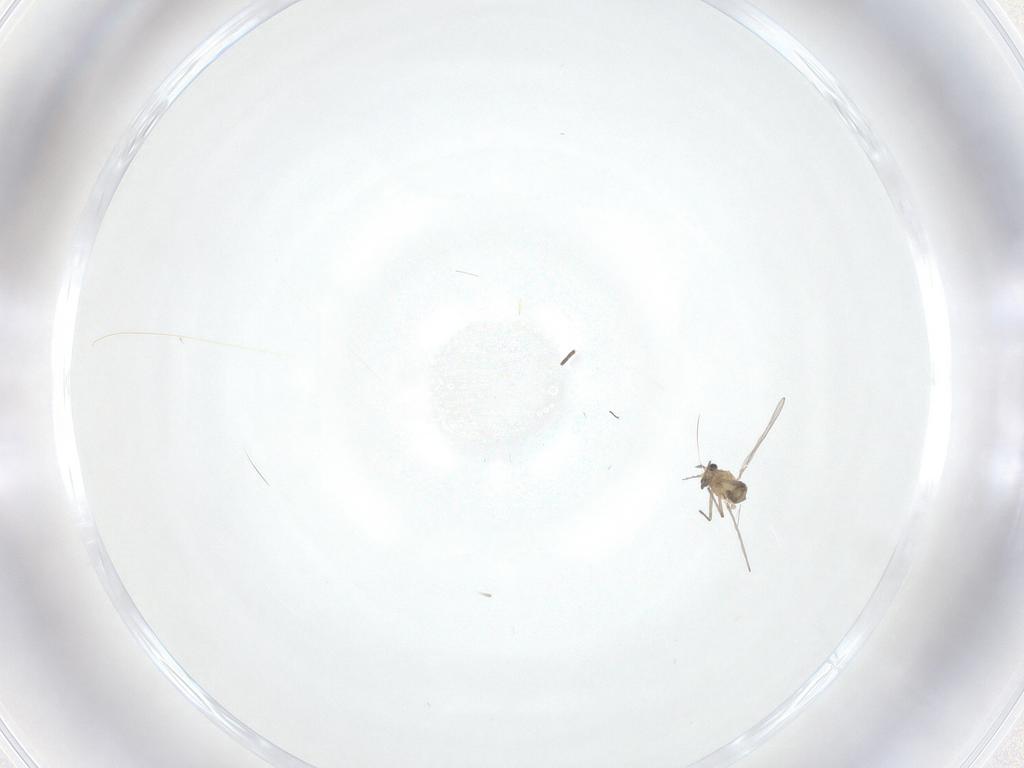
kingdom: Animalia
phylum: Arthropoda
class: Insecta
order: Diptera
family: Sciaridae
